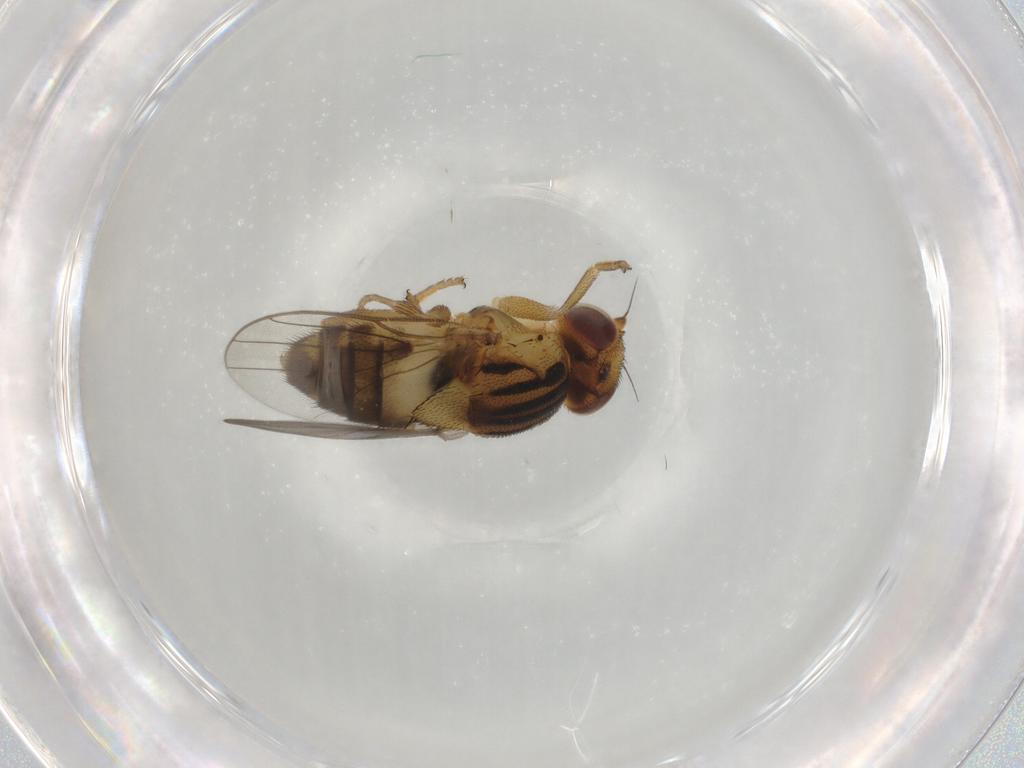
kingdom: Animalia
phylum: Arthropoda
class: Insecta
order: Diptera
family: Chloropidae
